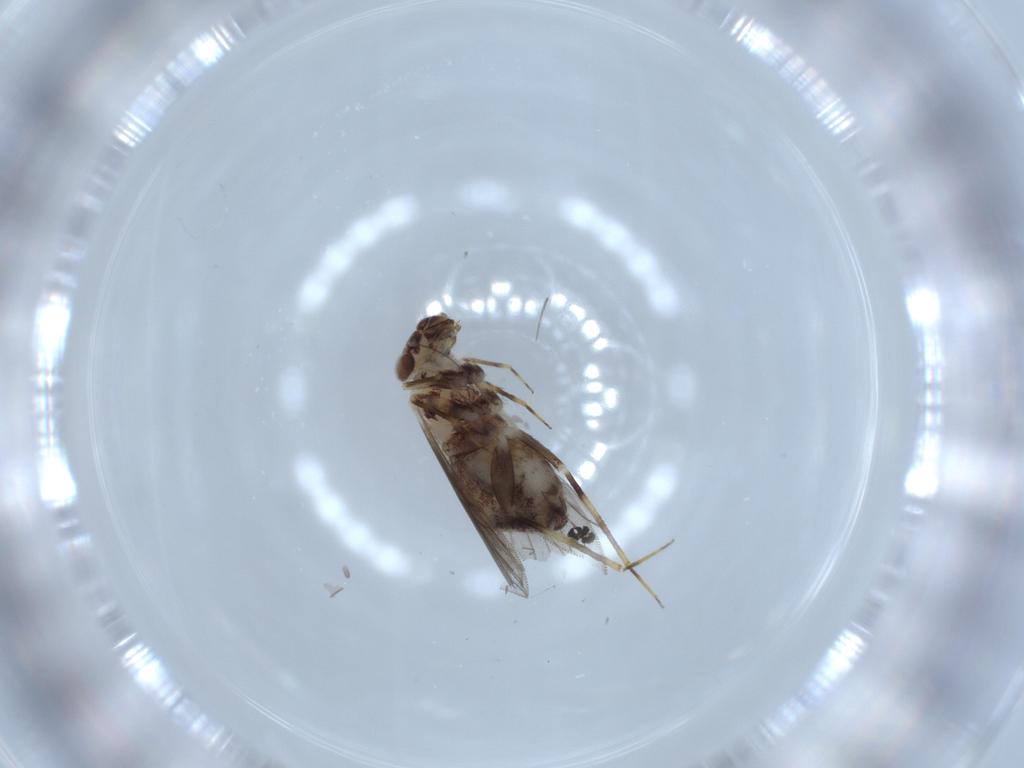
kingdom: Animalia
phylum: Arthropoda
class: Insecta
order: Psocodea
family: Lepidopsocidae
